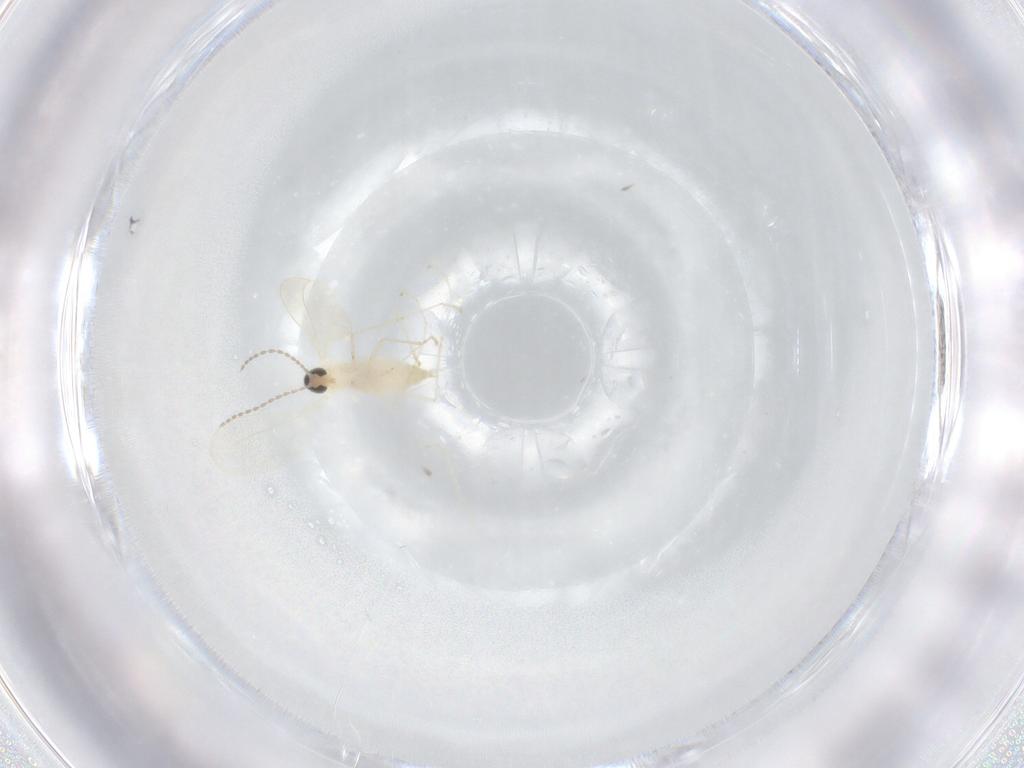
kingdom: Animalia
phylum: Arthropoda
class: Insecta
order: Diptera
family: Cecidomyiidae
